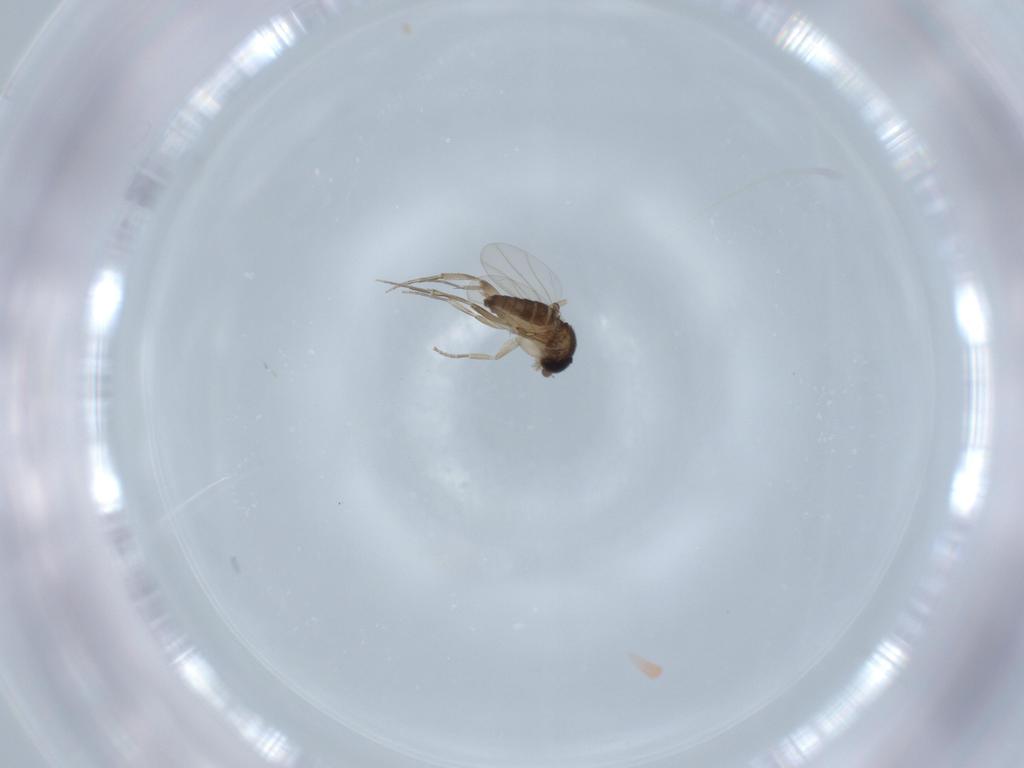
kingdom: Animalia
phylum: Arthropoda
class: Insecta
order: Diptera
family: Phoridae
